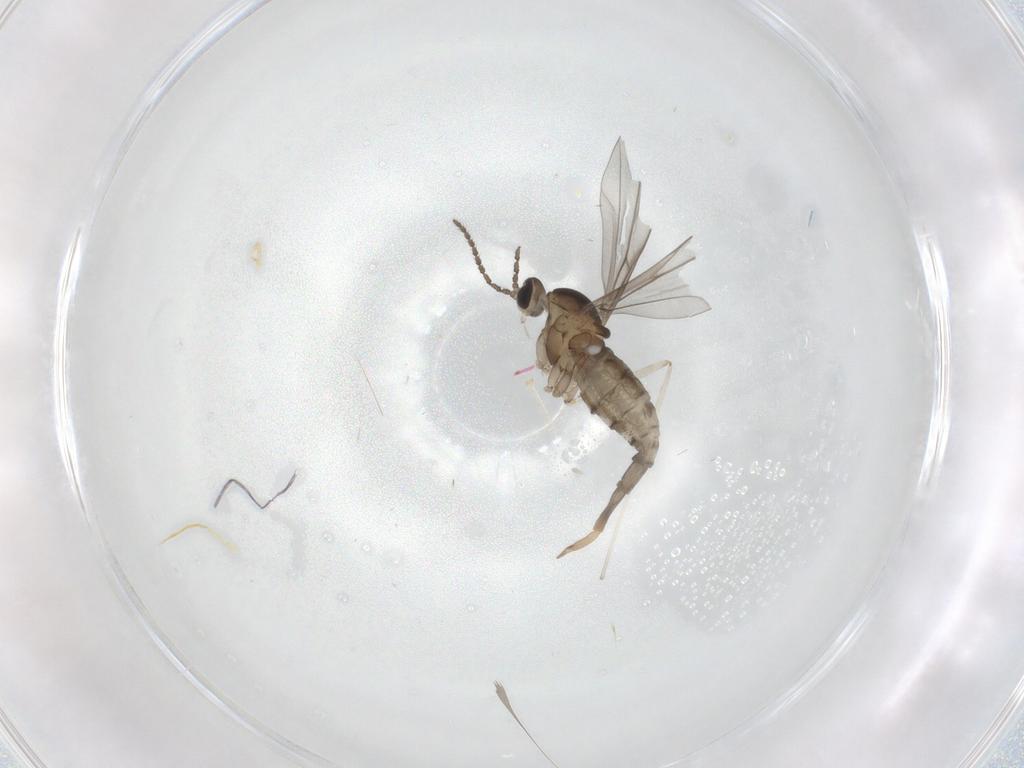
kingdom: Animalia
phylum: Arthropoda
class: Insecta
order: Diptera
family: Cecidomyiidae
